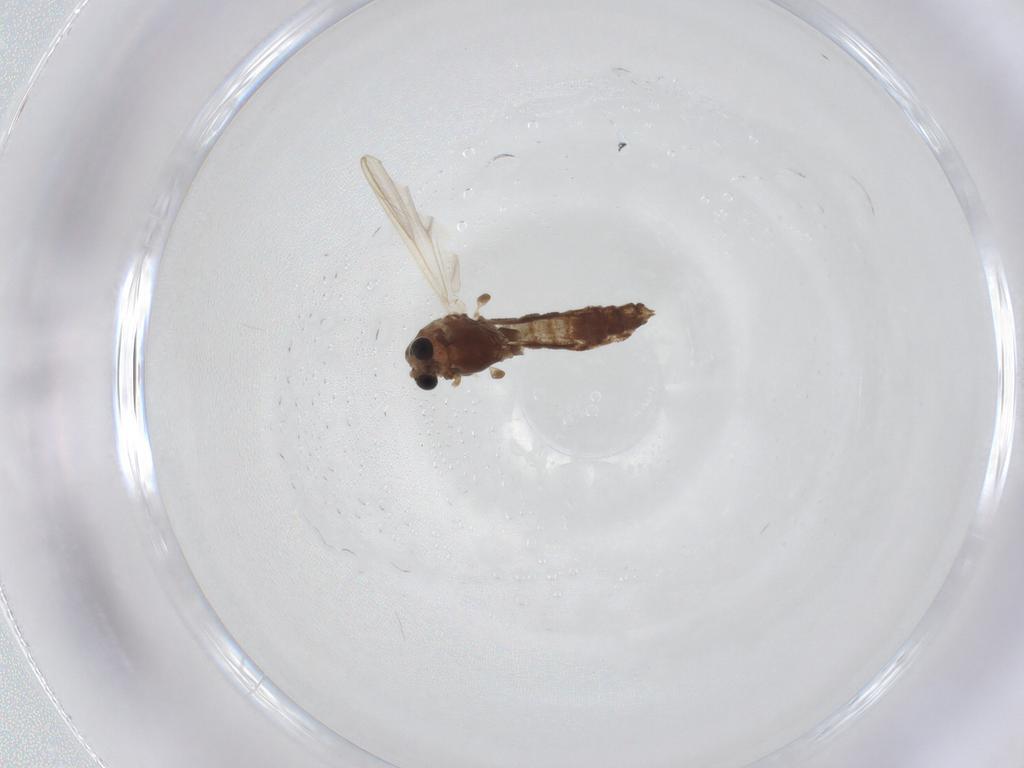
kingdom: Animalia
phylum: Arthropoda
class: Insecta
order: Diptera
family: Chironomidae
